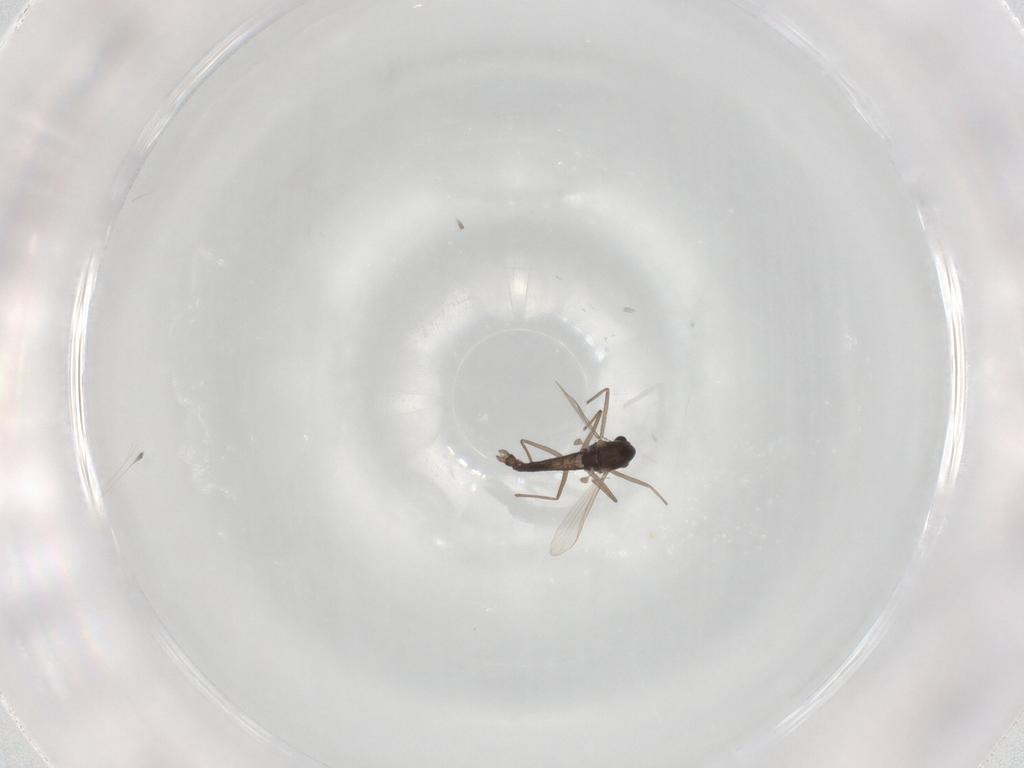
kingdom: Animalia
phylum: Arthropoda
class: Insecta
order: Diptera
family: Chironomidae
